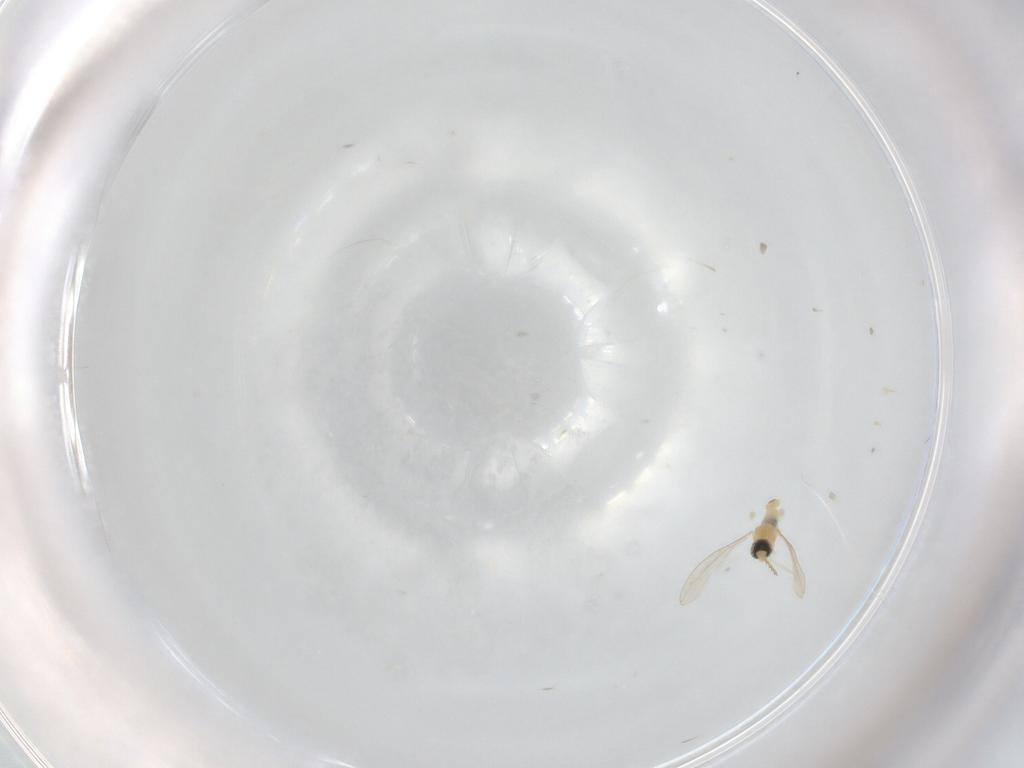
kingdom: Animalia
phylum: Arthropoda
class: Insecta
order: Diptera
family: Cecidomyiidae
